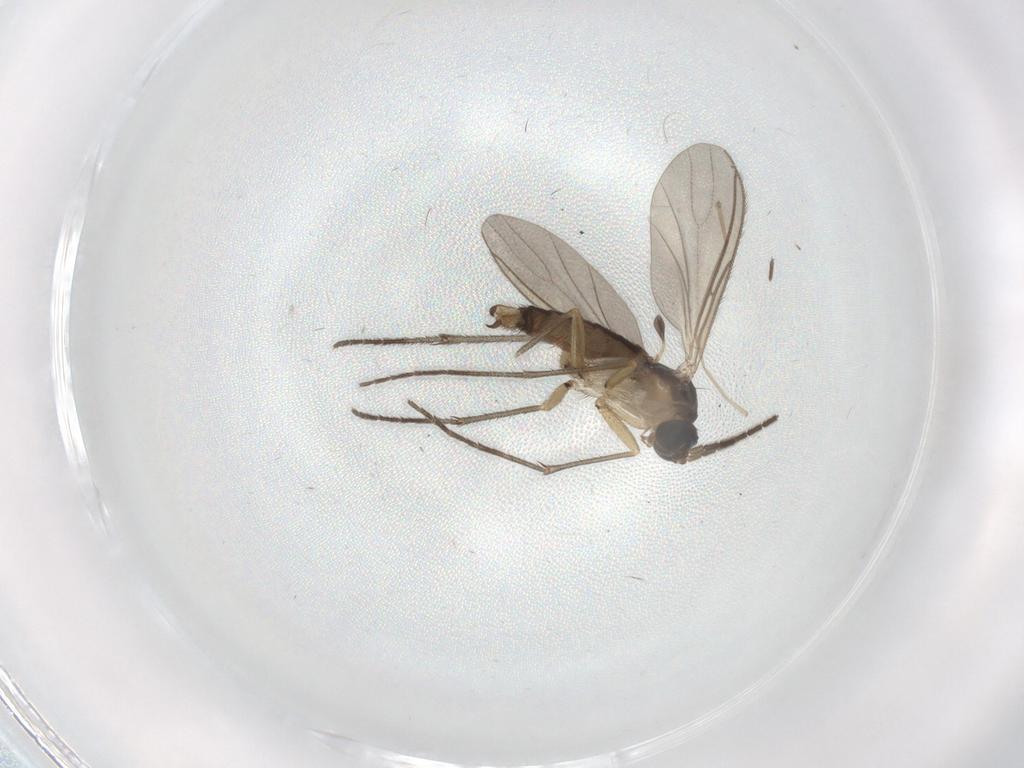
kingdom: Animalia
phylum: Arthropoda
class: Insecta
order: Diptera
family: Sciaridae
